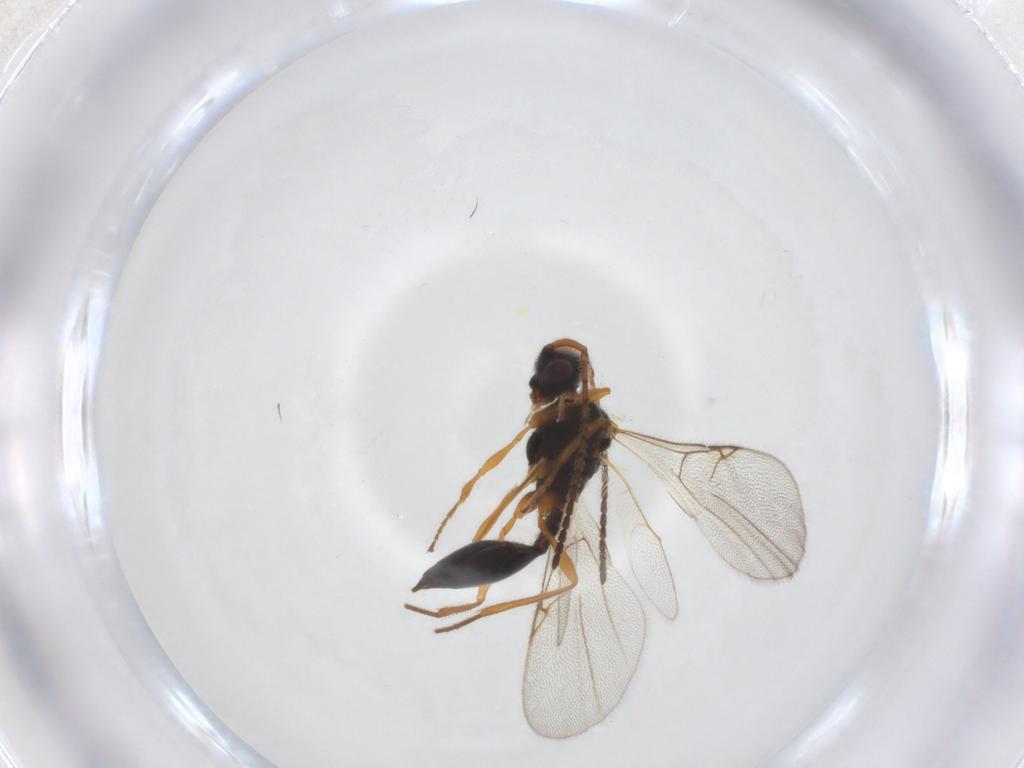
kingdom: Animalia
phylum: Arthropoda
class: Insecta
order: Hymenoptera
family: Diapriidae
